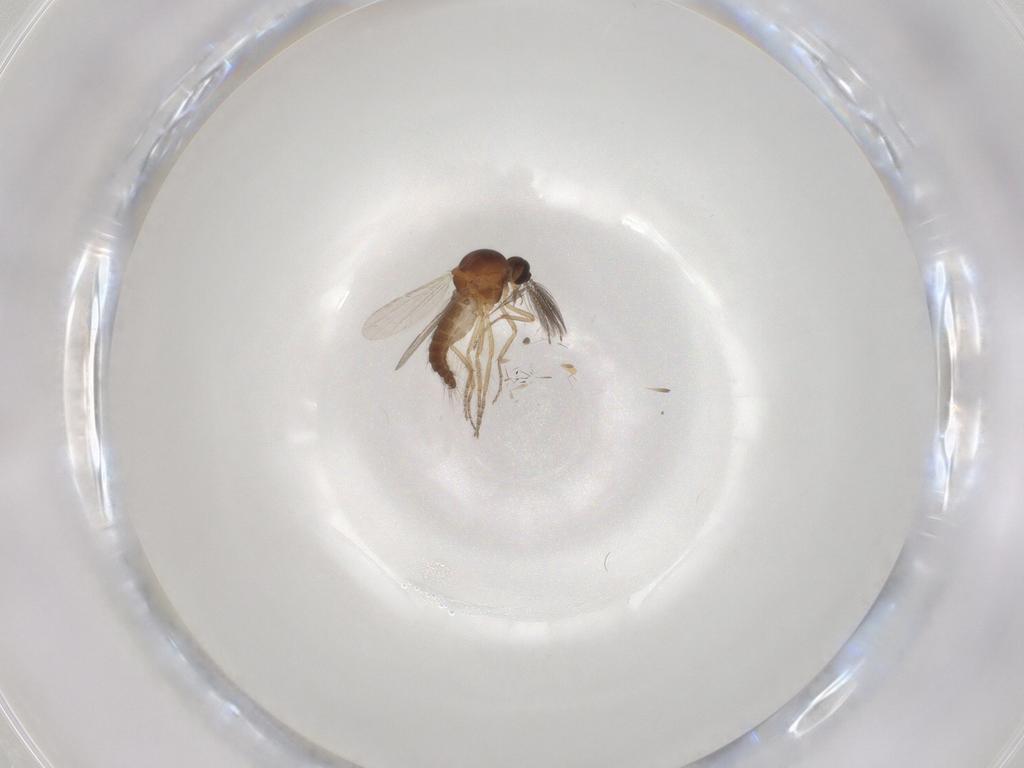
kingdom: Animalia
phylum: Arthropoda
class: Insecta
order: Diptera
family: Ceratopogonidae
